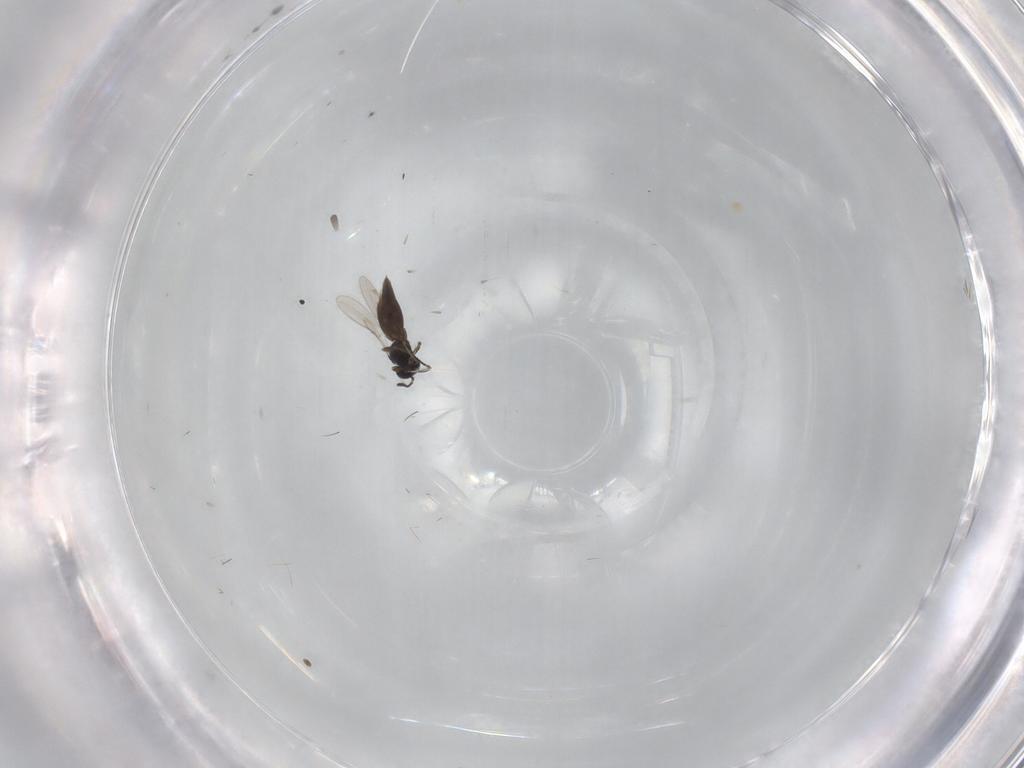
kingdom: Animalia
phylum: Arthropoda
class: Insecta
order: Hymenoptera
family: Scelionidae
